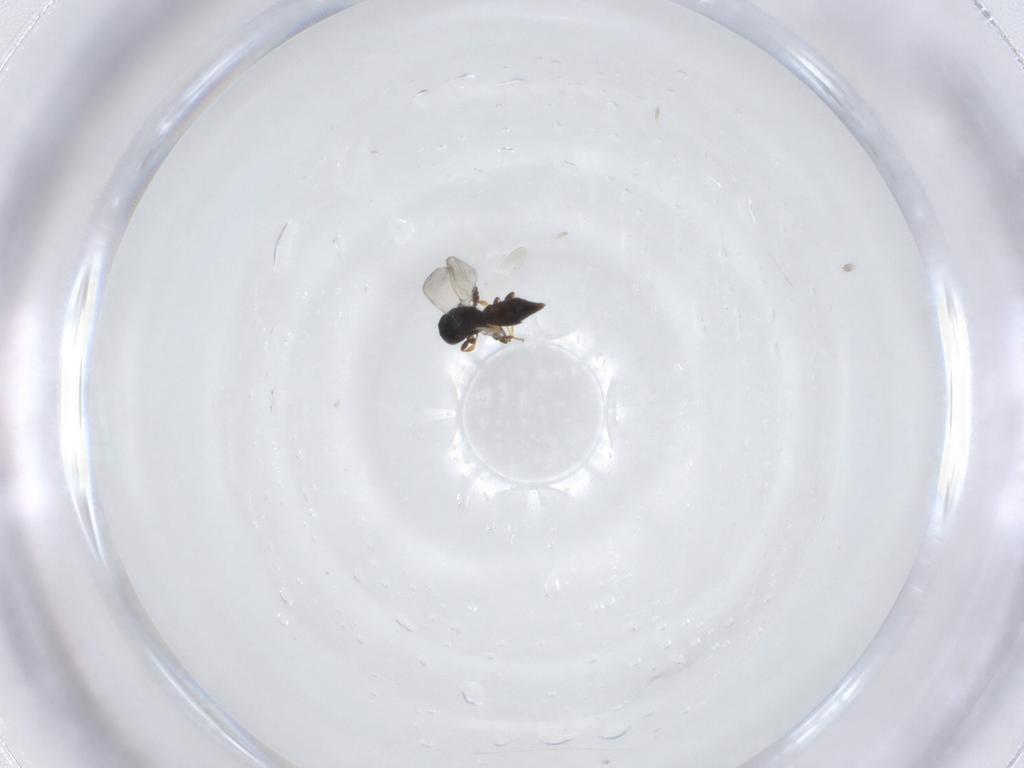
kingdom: Animalia
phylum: Arthropoda
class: Insecta
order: Hymenoptera
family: Platygastridae
